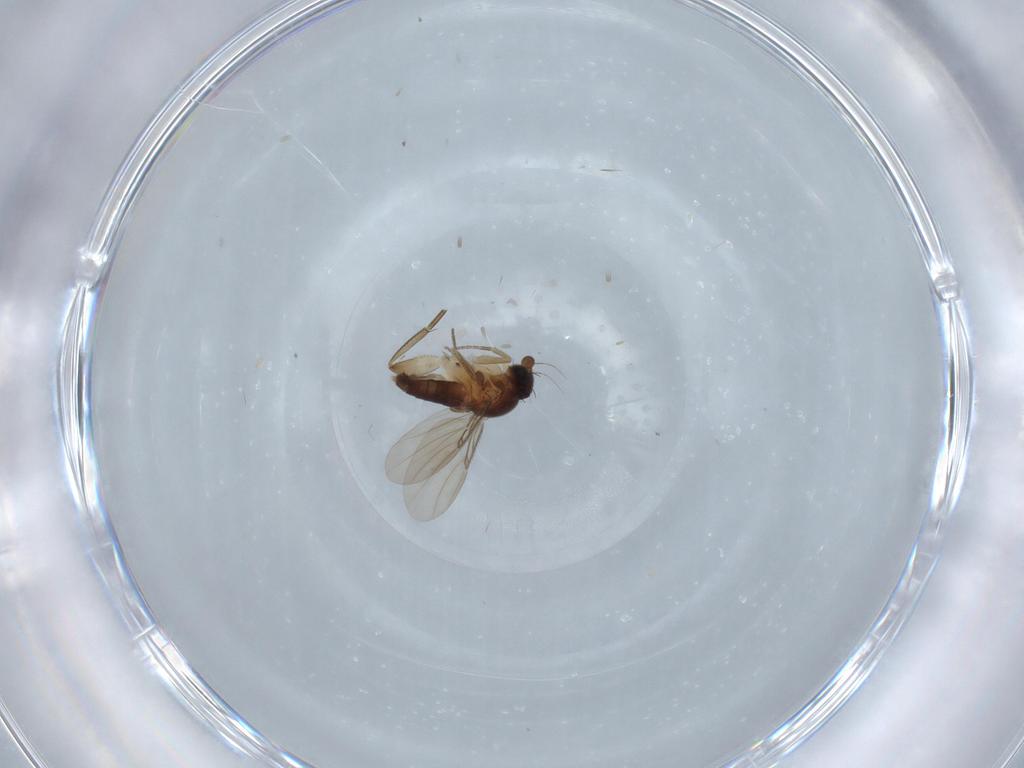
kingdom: Animalia
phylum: Arthropoda
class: Insecta
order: Diptera
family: Phoridae
